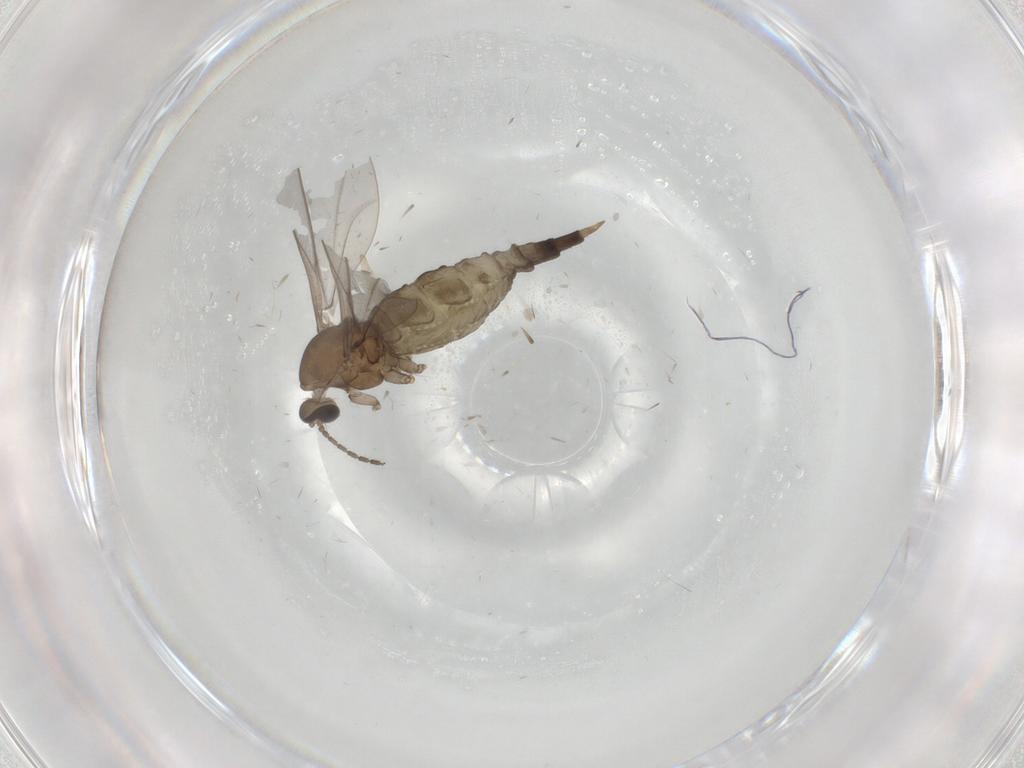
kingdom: Animalia
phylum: Arthropoda
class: Insecta
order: Diptera
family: Cecidomyiidae
